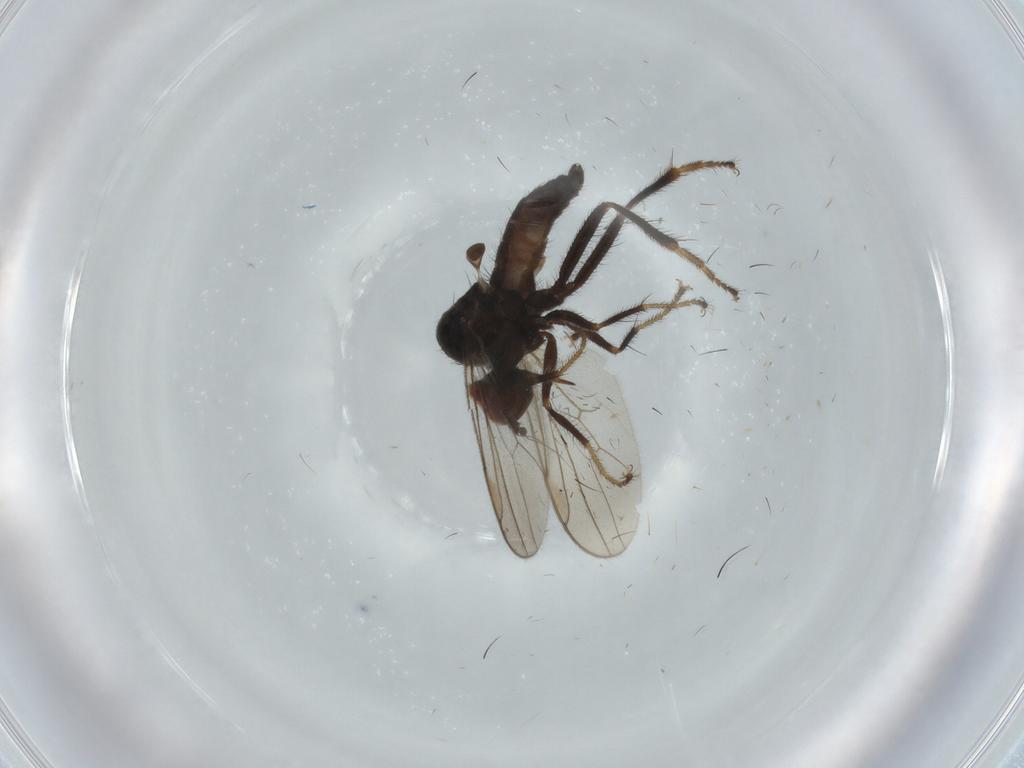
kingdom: Animalia
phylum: Arthropoda
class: Insecta
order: Diptera
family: Hybotidae
